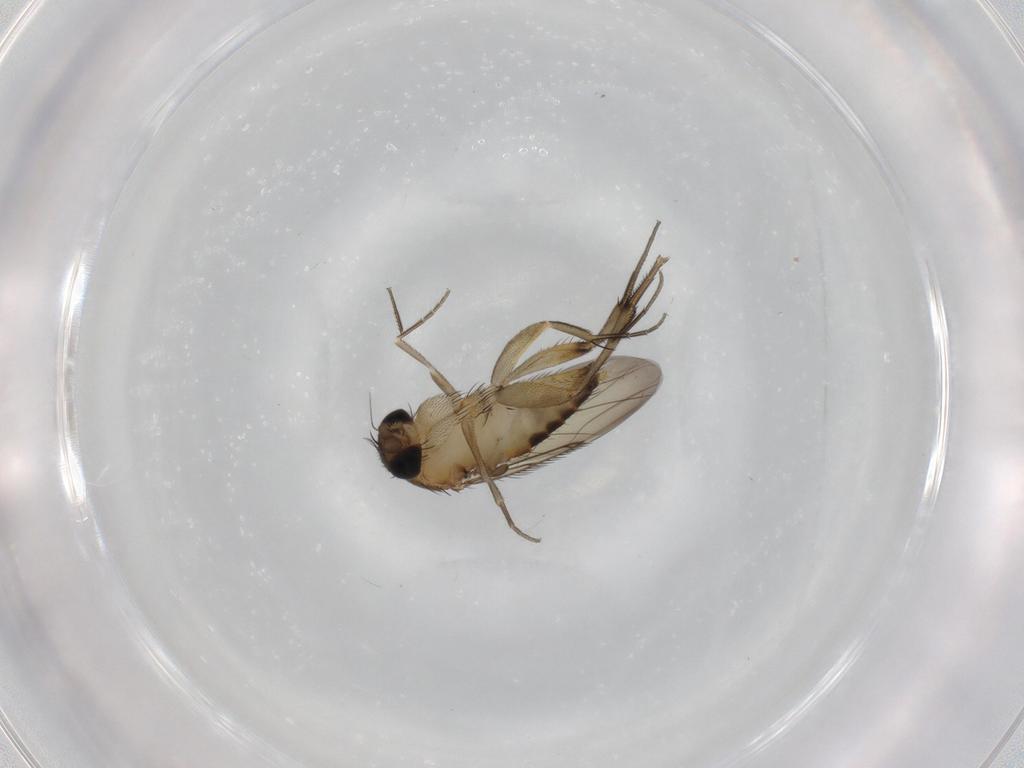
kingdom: Animalia
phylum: Arthropoda
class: Insecta
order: Diptera
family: Phoridae
